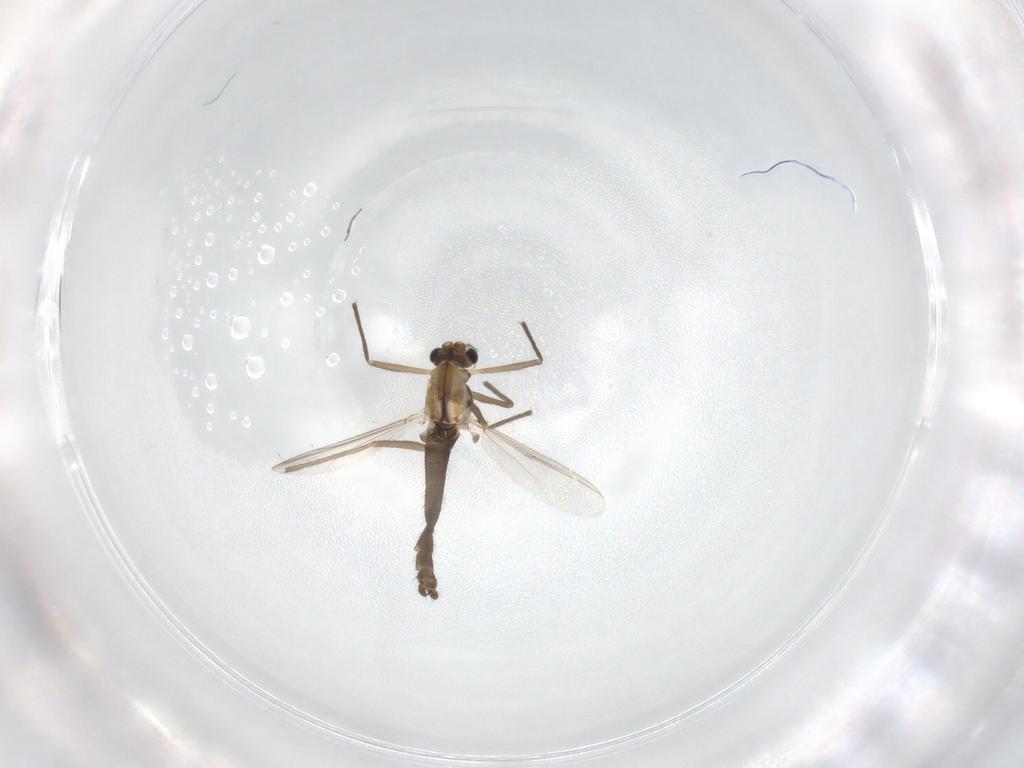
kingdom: Animalia
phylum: Arthropoda
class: Insecta
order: Diptera
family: Chironomidae
